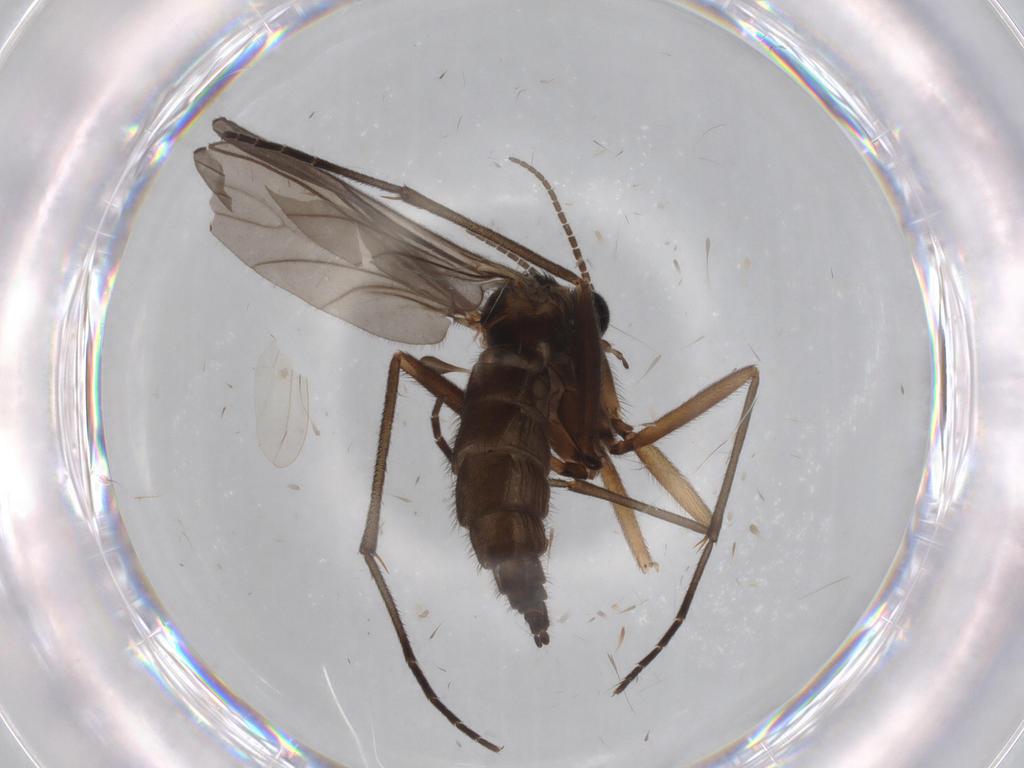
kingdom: Animalia
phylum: Arthropoda
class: Insecta
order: Diptera
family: Sciaridae
